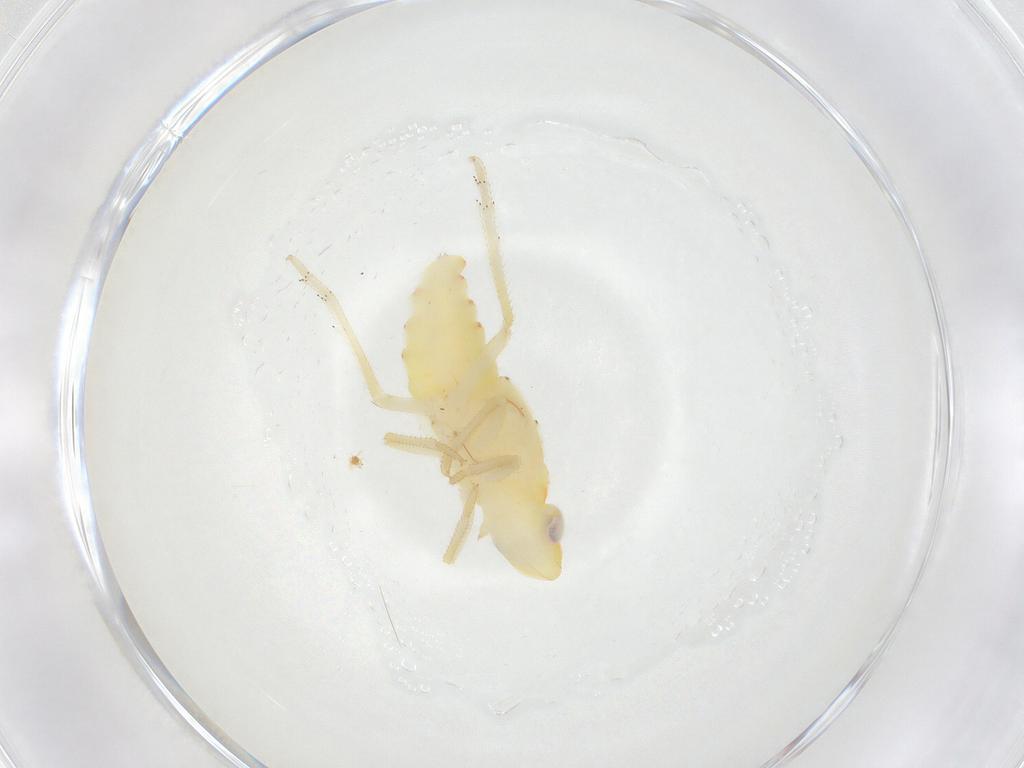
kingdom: Animalia
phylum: Arthropoda
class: Insecta
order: Hemiptera
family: Tropiduchidae
